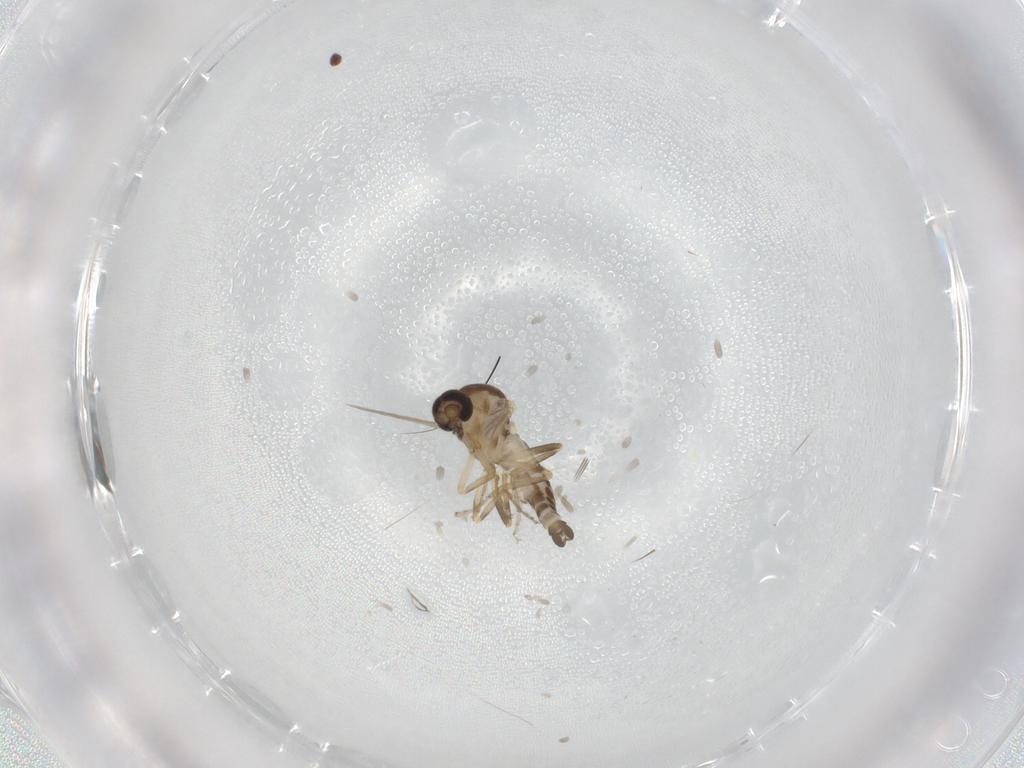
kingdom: Animalia
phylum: Arthropoda
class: Insecta
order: Diptera
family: Ceratopogonidae
